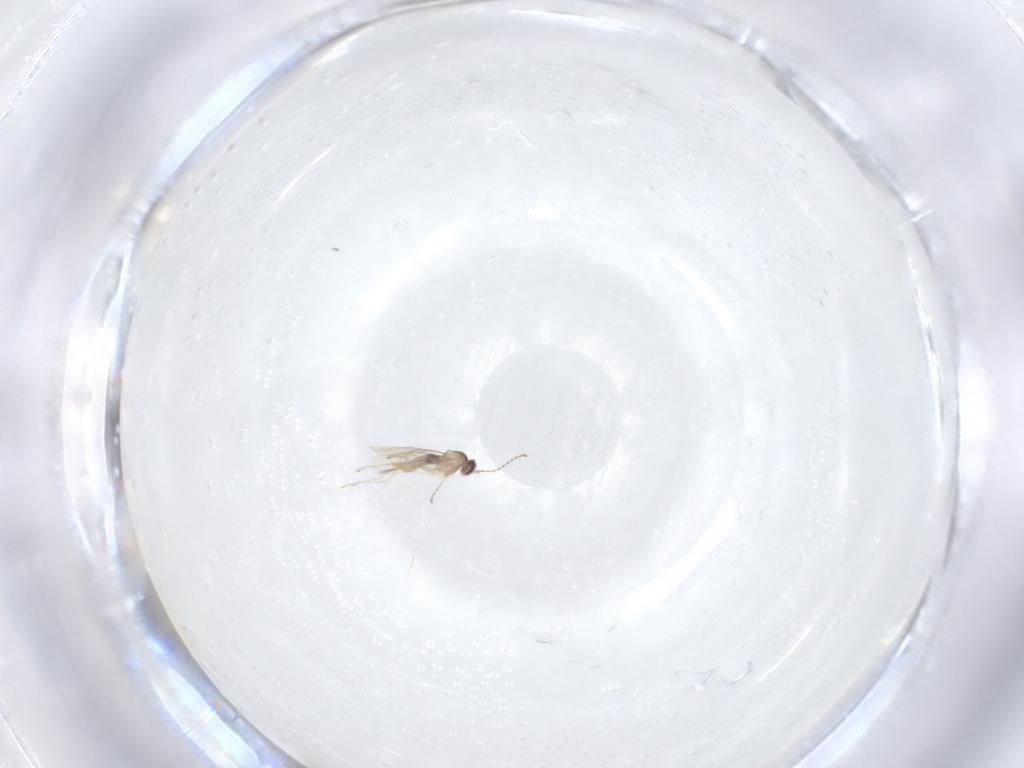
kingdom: Animalia
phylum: Arthropoda
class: Insecta
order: Diptera
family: Cecidomyiidae
